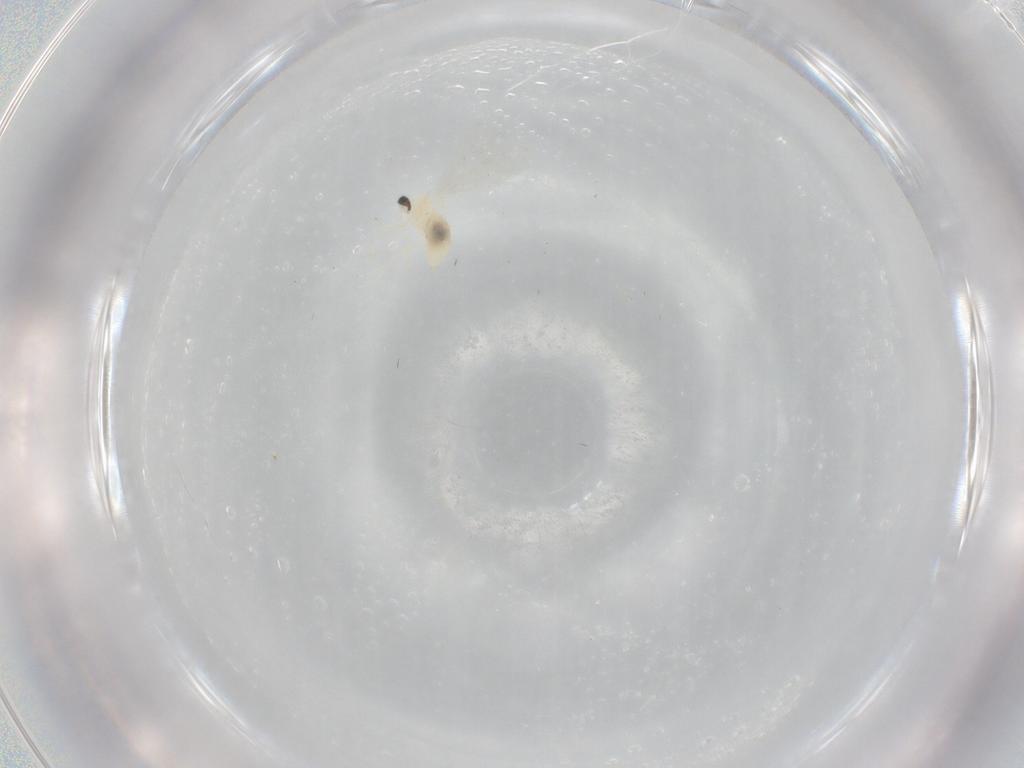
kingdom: Animalia
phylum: Arthropoda
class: Insecta
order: Diptera
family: Cecidomyiidae
